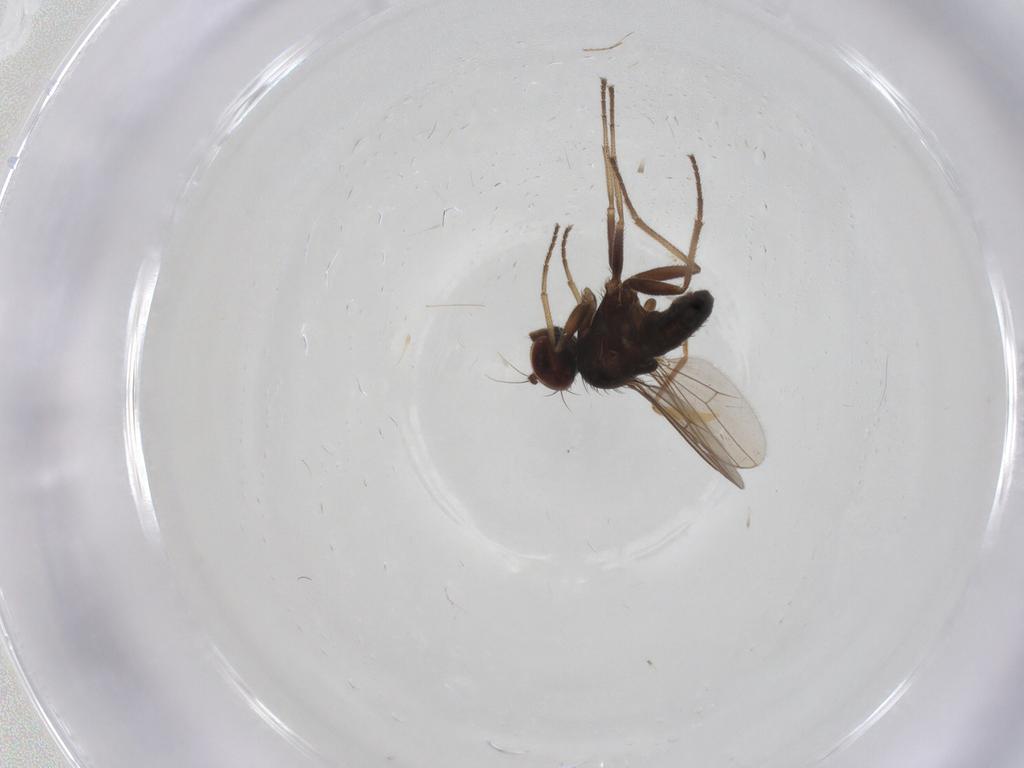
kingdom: Animalia
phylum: Arthropoda
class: Insecta
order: Diptera
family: Dolichopodidae
